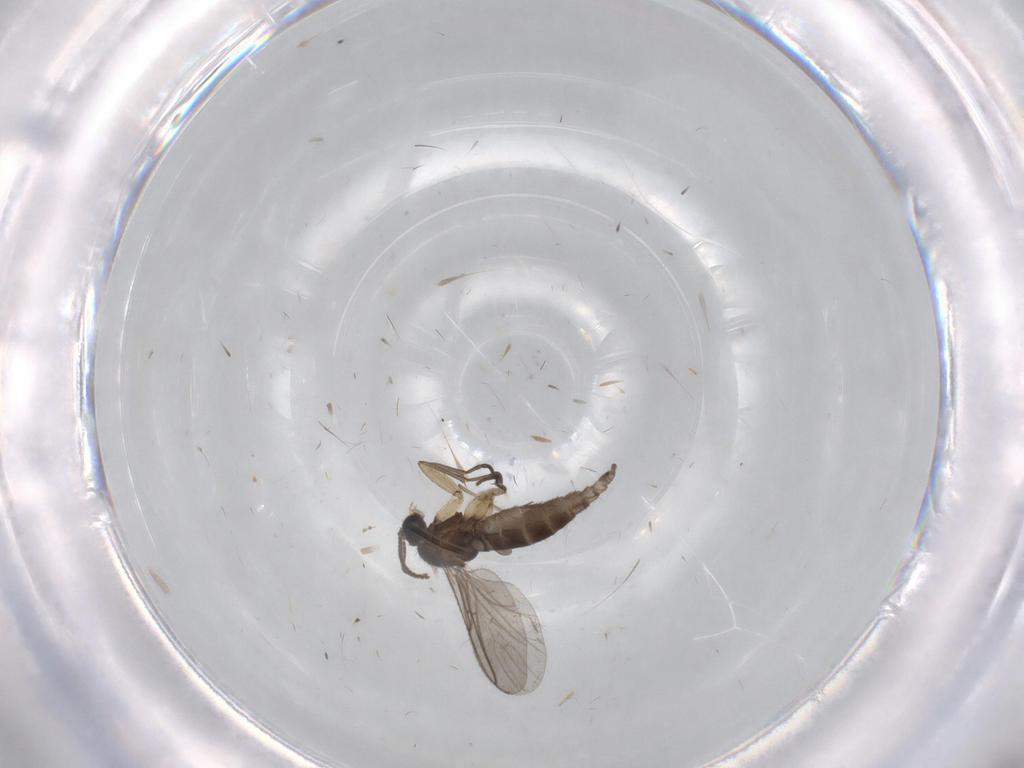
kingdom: Animalia
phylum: Arthropoda
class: Insecta
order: Diptera
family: Cecidomyiidae
